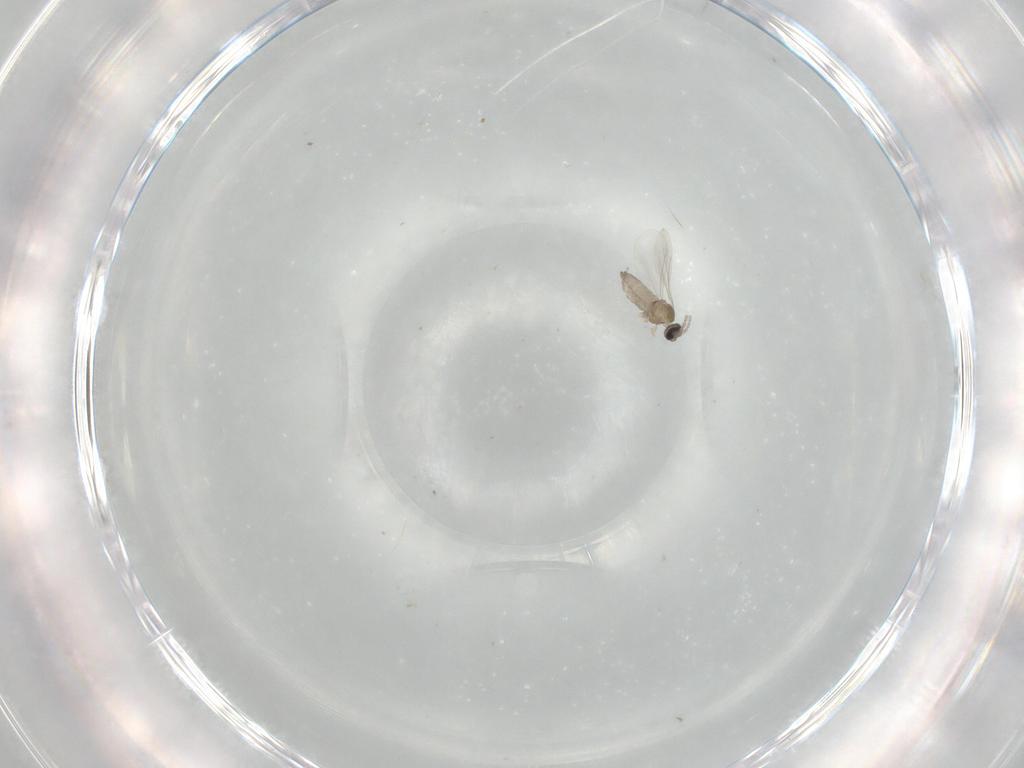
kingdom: Animalia
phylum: Arthropoda
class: Insecta
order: Diptera
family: Cecidomyiidae
